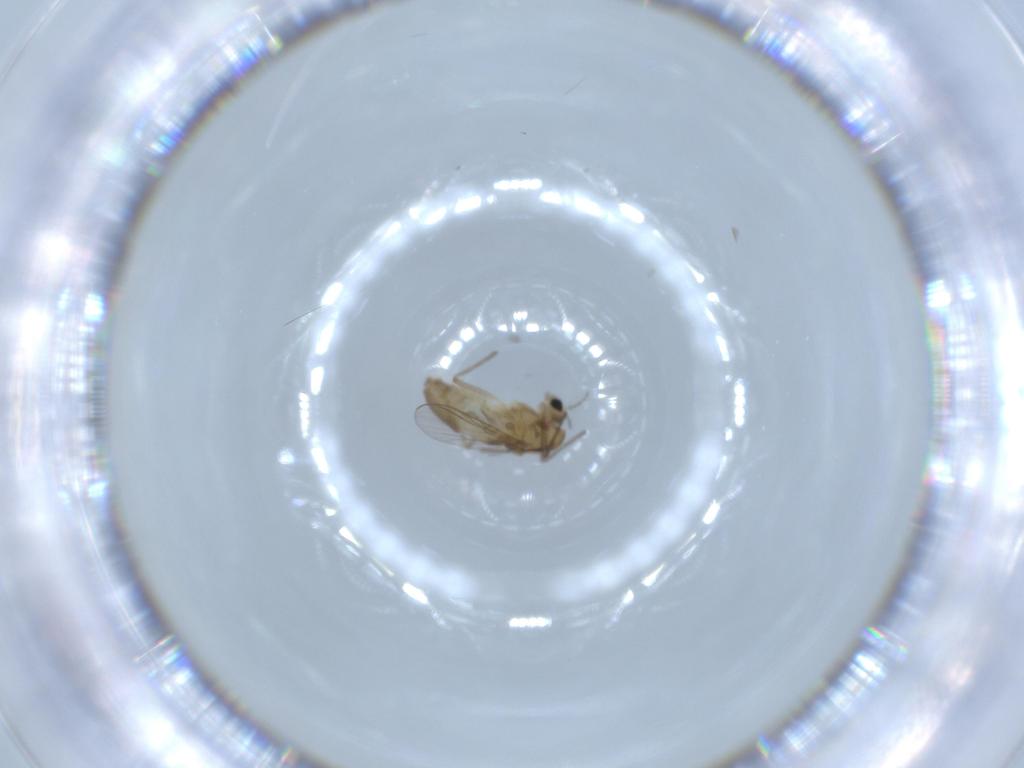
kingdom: Animalia
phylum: Arthropoda
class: Insecta
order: Diptera
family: Chironomidae
